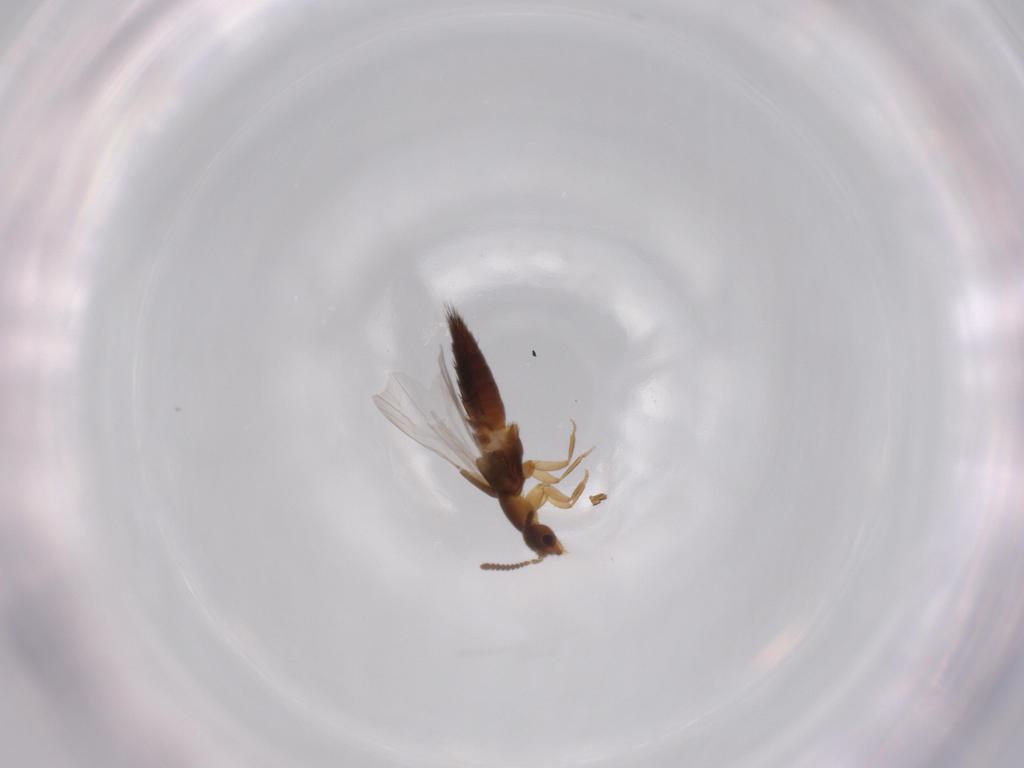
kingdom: Animalia
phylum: Arthropoda
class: Insecta
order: Coleoptera
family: Staphylinidae
